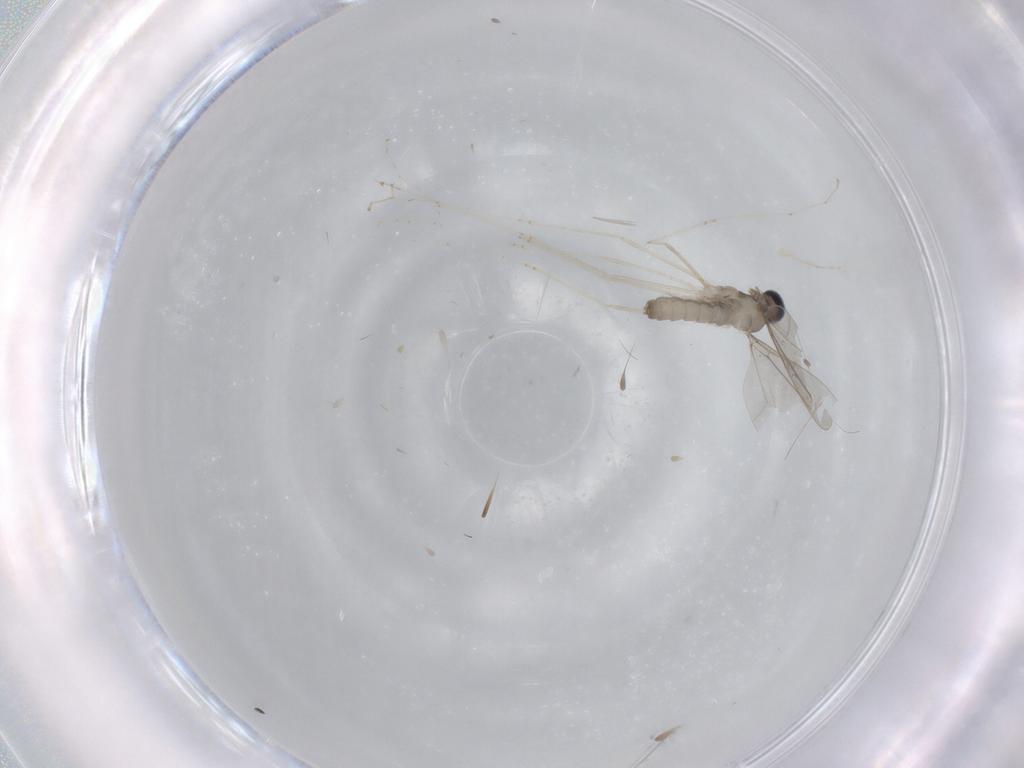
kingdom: Animalia
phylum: Arthropoda
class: Insecta
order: Diptera
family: Cecidomyiidae
